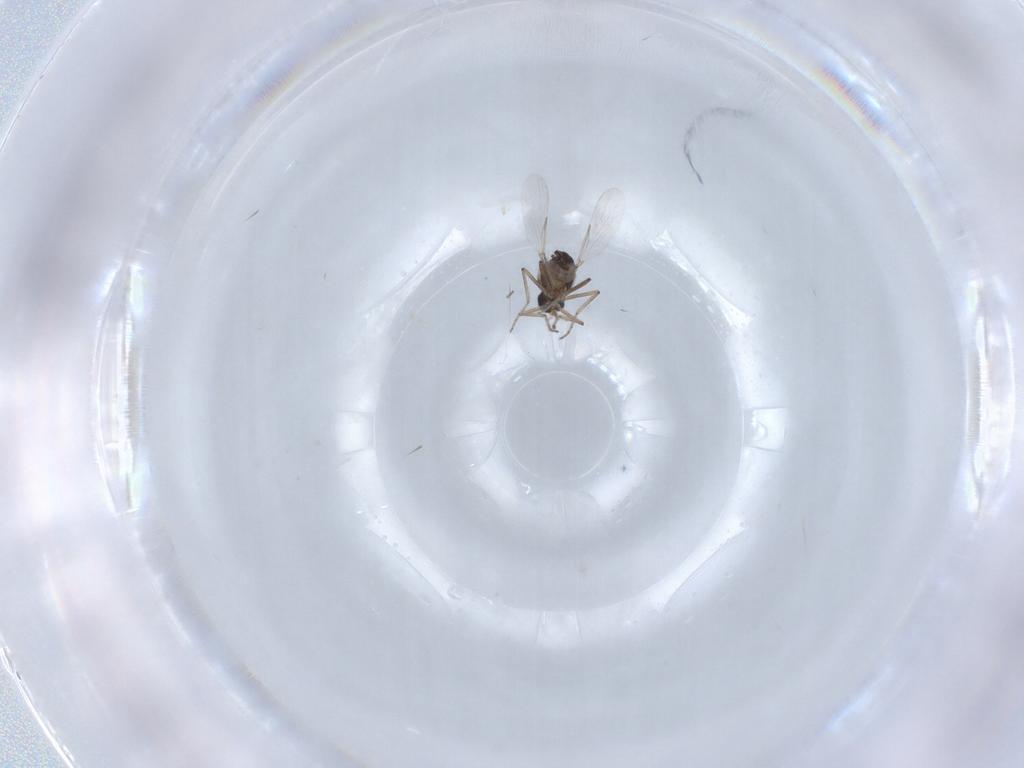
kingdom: Animalia
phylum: Arthropoda
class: Insecta
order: Diptera
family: Ceratopogonidae
